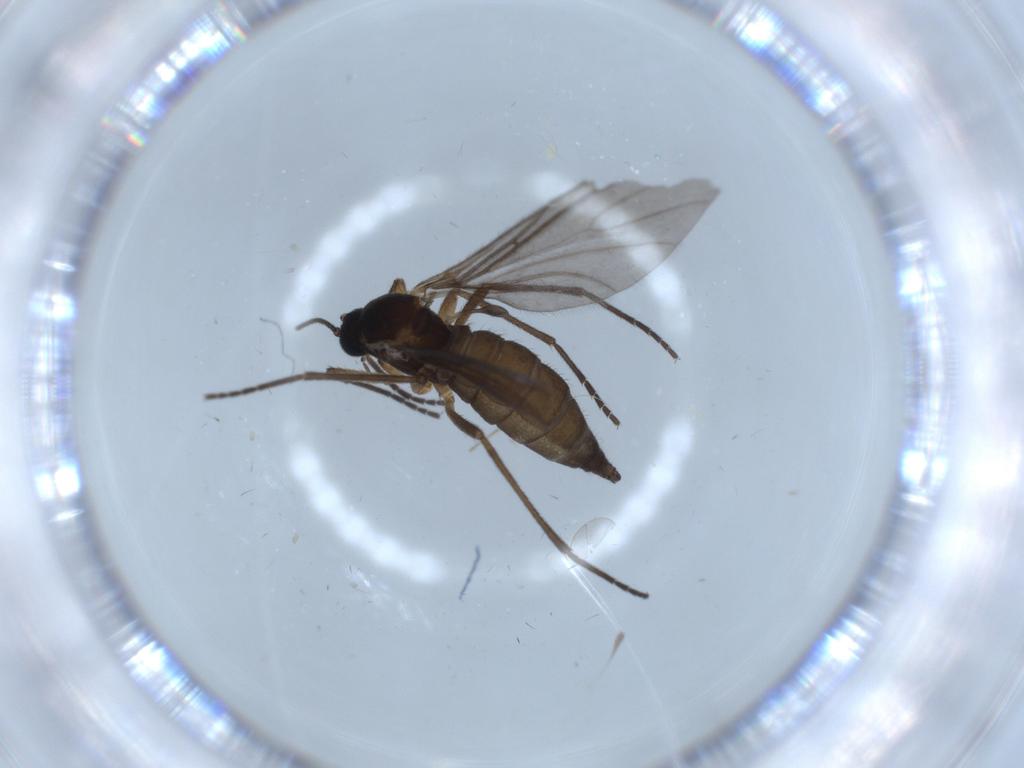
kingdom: Animalia
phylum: Arthropoda
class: Insecta
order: Diptera
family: Sciaridae
